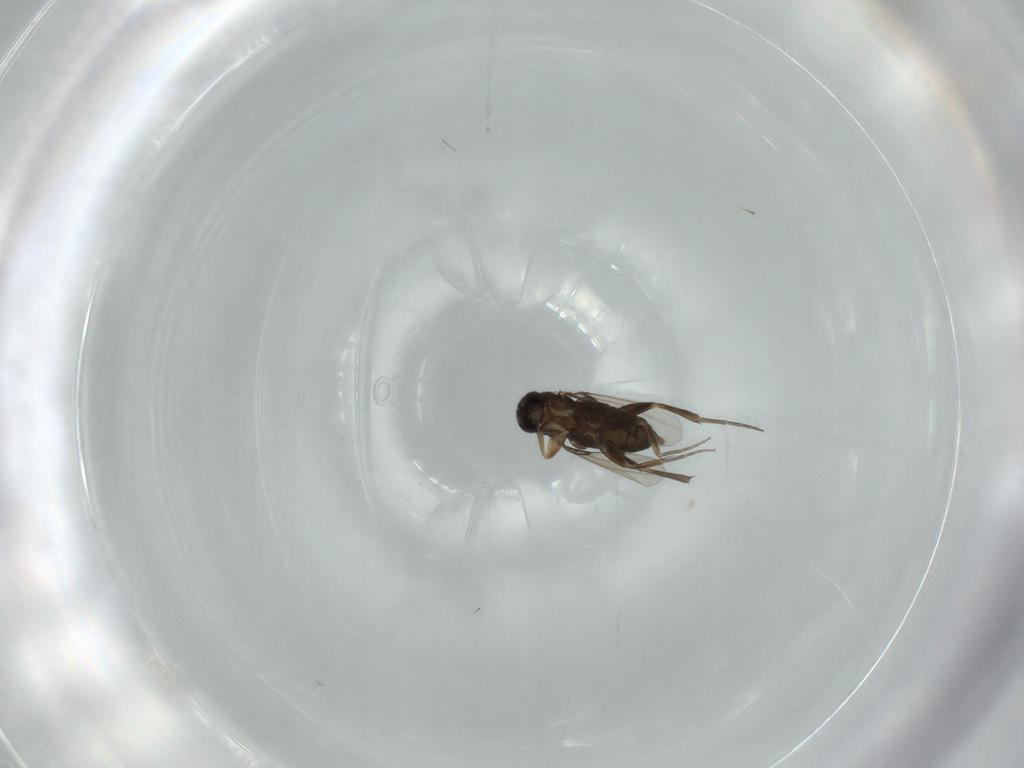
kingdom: Animalia
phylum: Arthropoda
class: Insecta
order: Diptera
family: Phoridae
